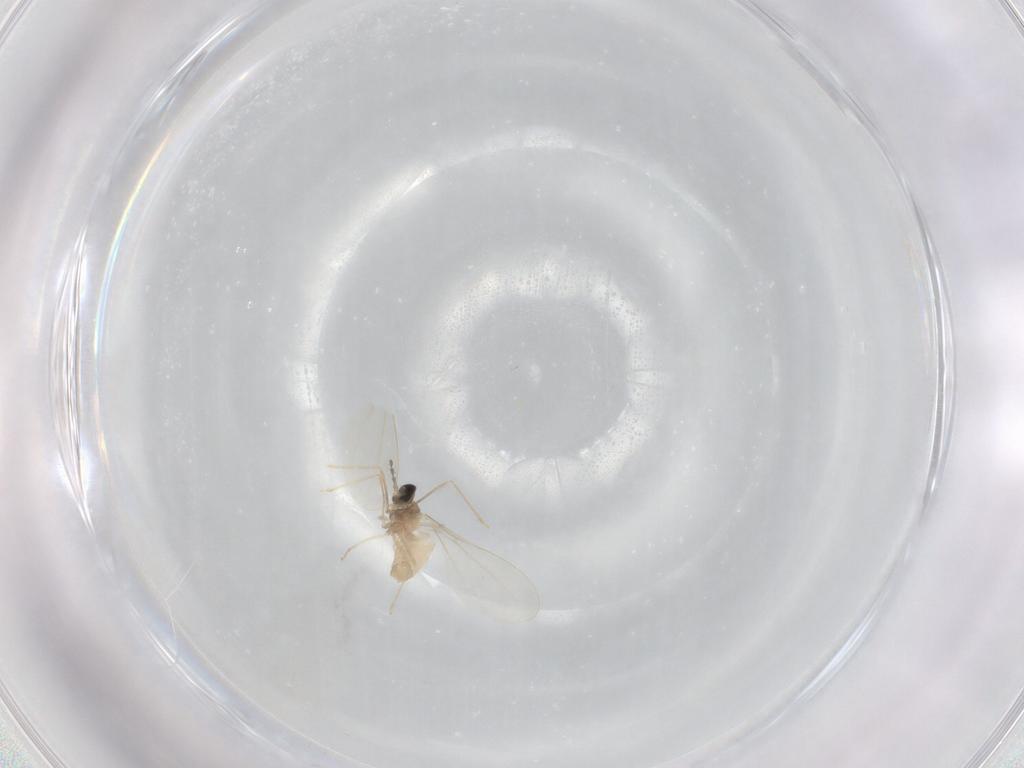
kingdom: Animalia
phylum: Arthropoda
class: Insecta
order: Diptera
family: Cecidomyiidae
